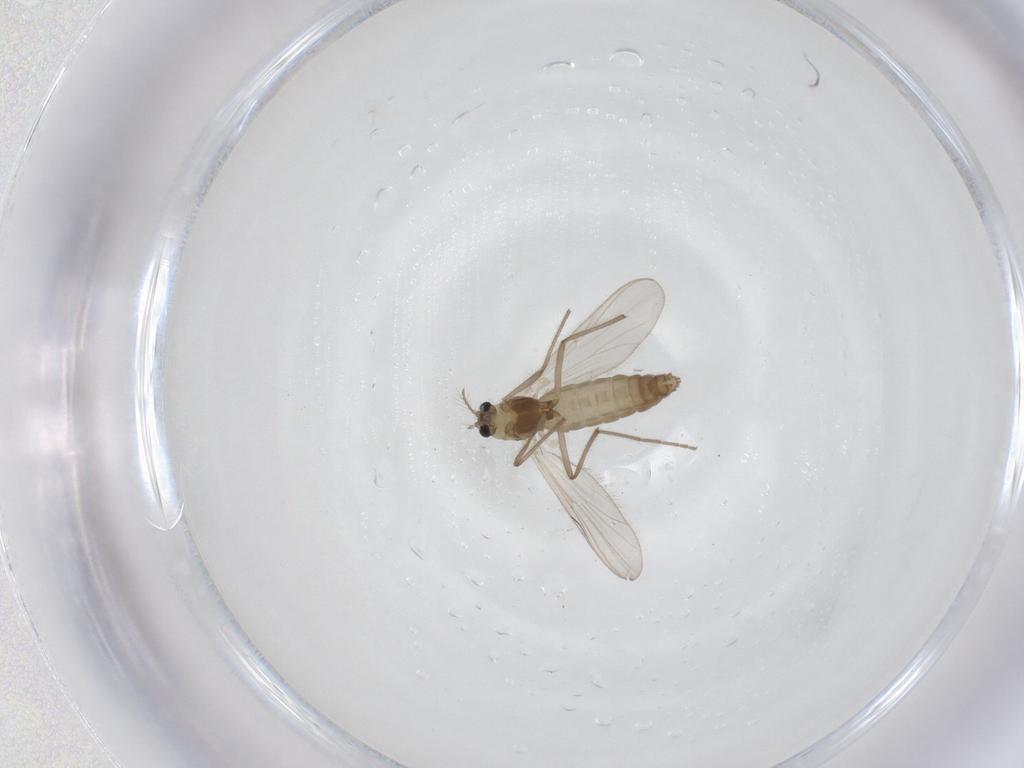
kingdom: Animalia
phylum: Arthropoda
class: Insecta
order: Diptera
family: Chironomidae
